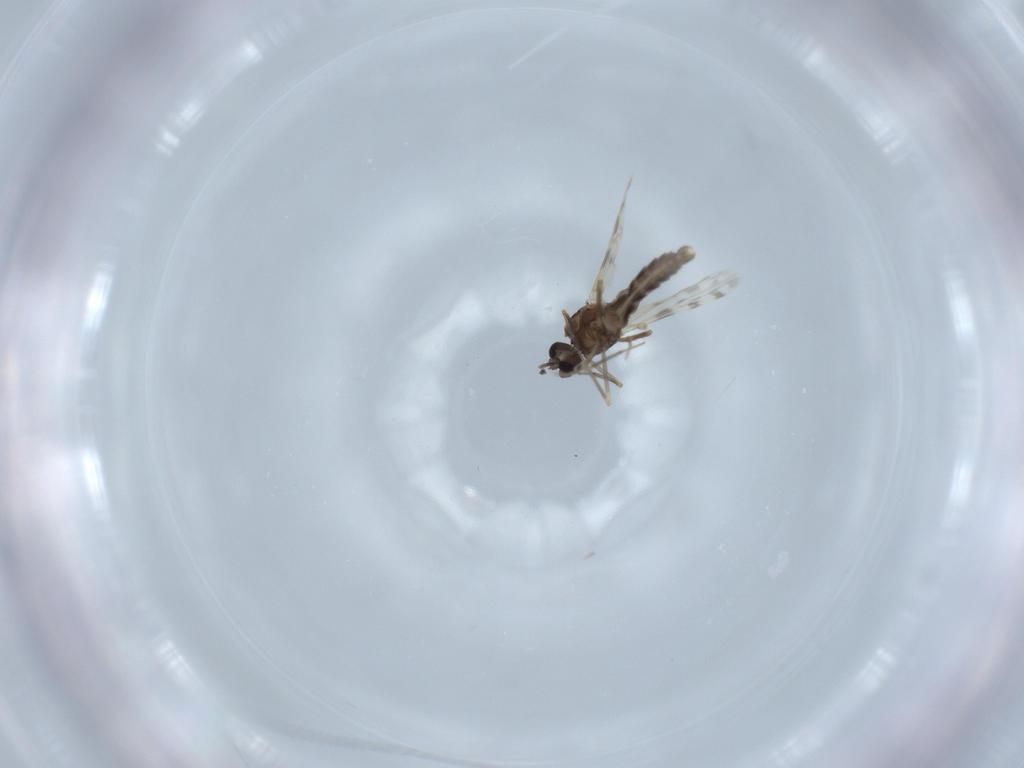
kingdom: Animalia
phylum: Arthropoda
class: Insecta
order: Diptera
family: Ceratopogonidae
